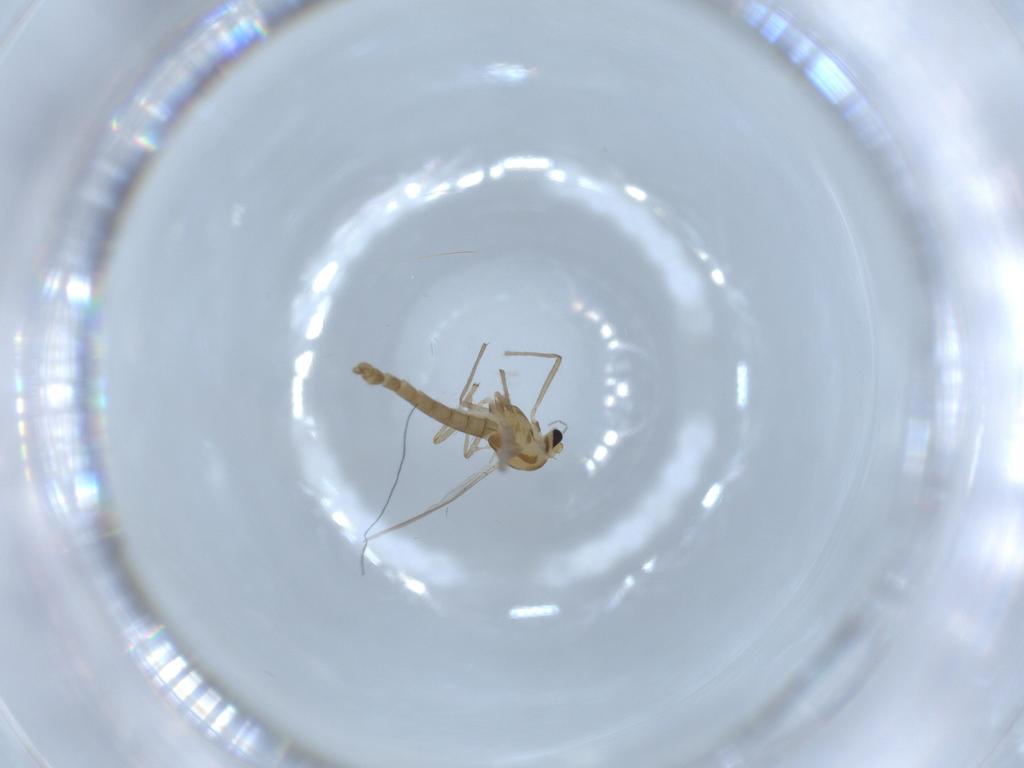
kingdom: Animalia
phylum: Arthropoda
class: Insecta
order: Diptera
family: Chironomidae
